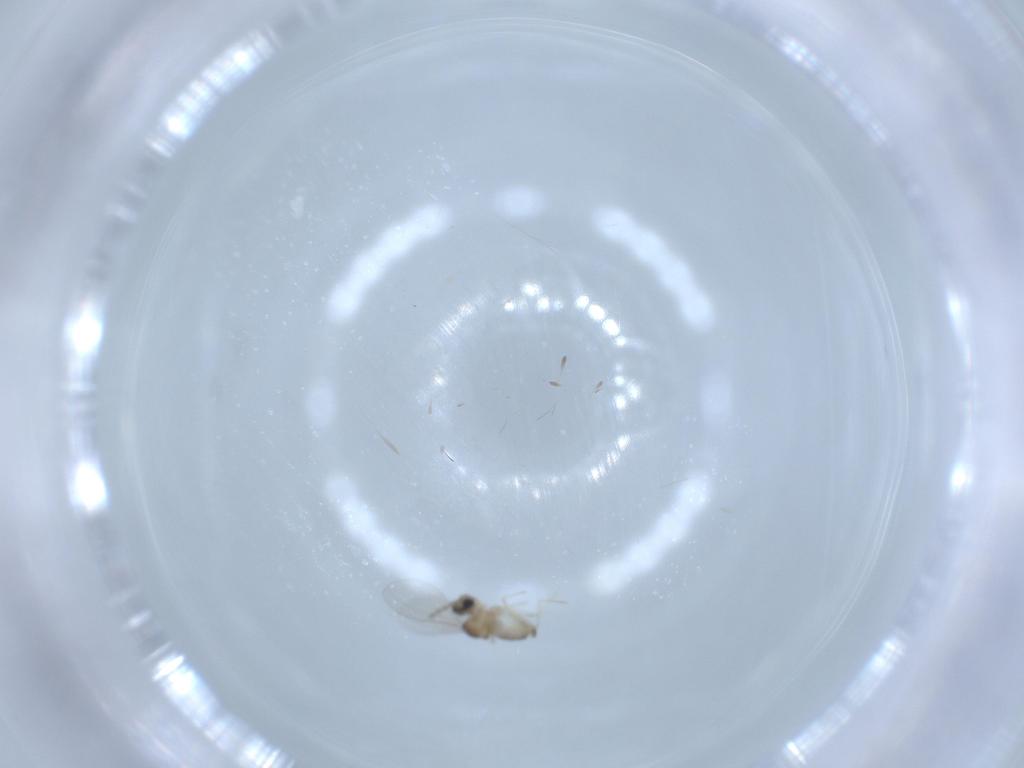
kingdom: Animalia
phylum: Arthropoda
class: Insecta
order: Diptera
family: Cecidomyiidae
